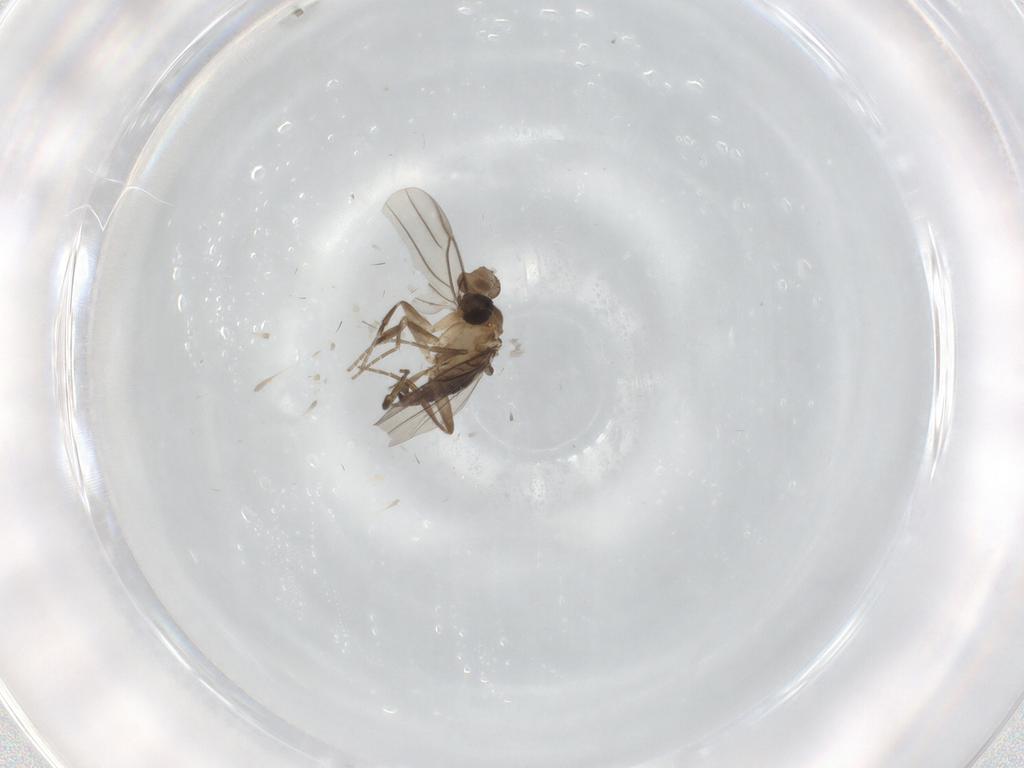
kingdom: Animalia
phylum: Arthropoda
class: Insecta
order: Diptera
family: Phoridae
